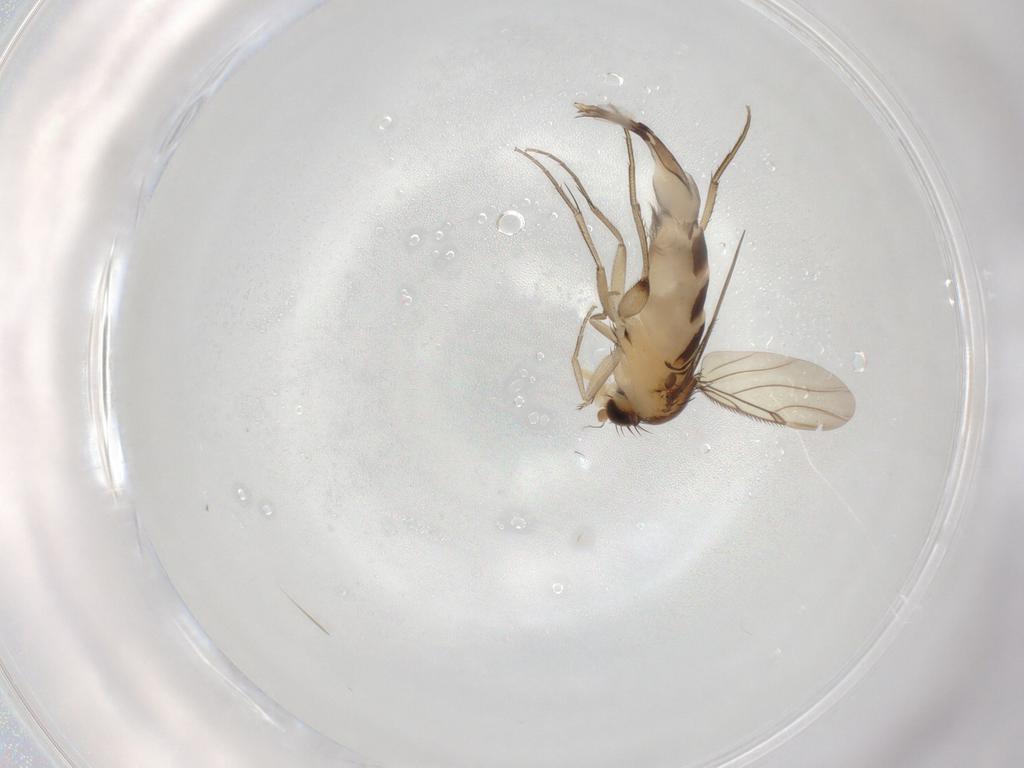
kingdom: Animalia
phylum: Arthropoda
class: Insecta
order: Diptera
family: Phoridae
